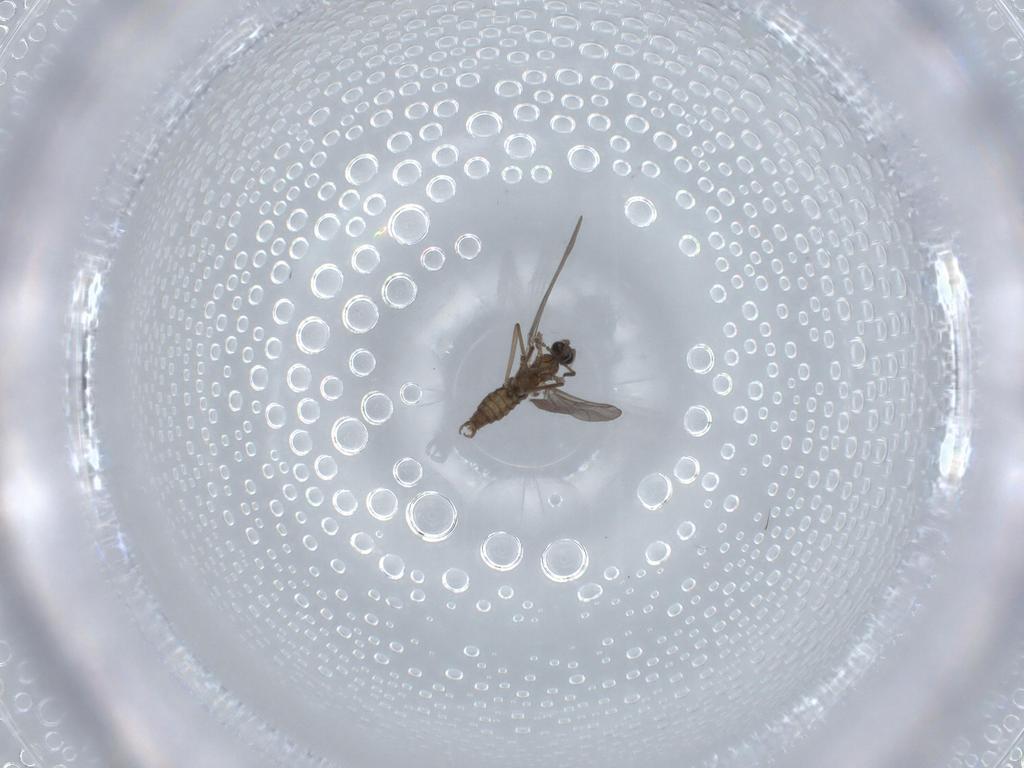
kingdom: Animalia
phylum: Arthropoda
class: Insecta
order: Diptera
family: Cecidomyiidae
